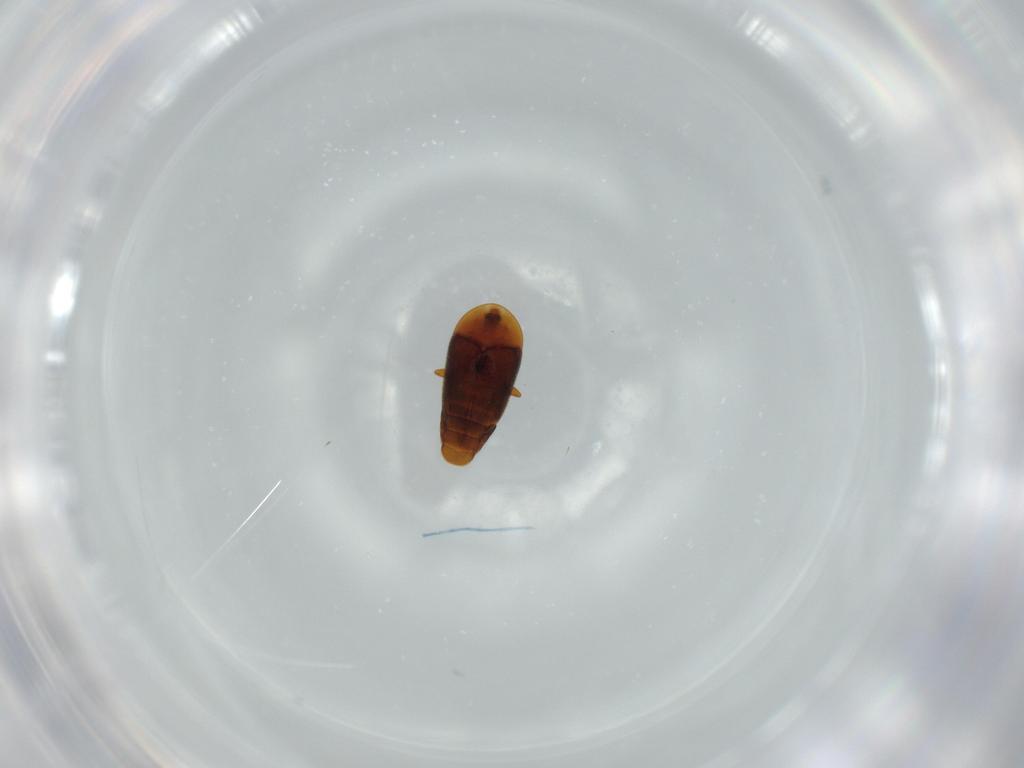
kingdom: Animalia
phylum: Arthropoda
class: Insecta
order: Coleoptera
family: Corylophidae
